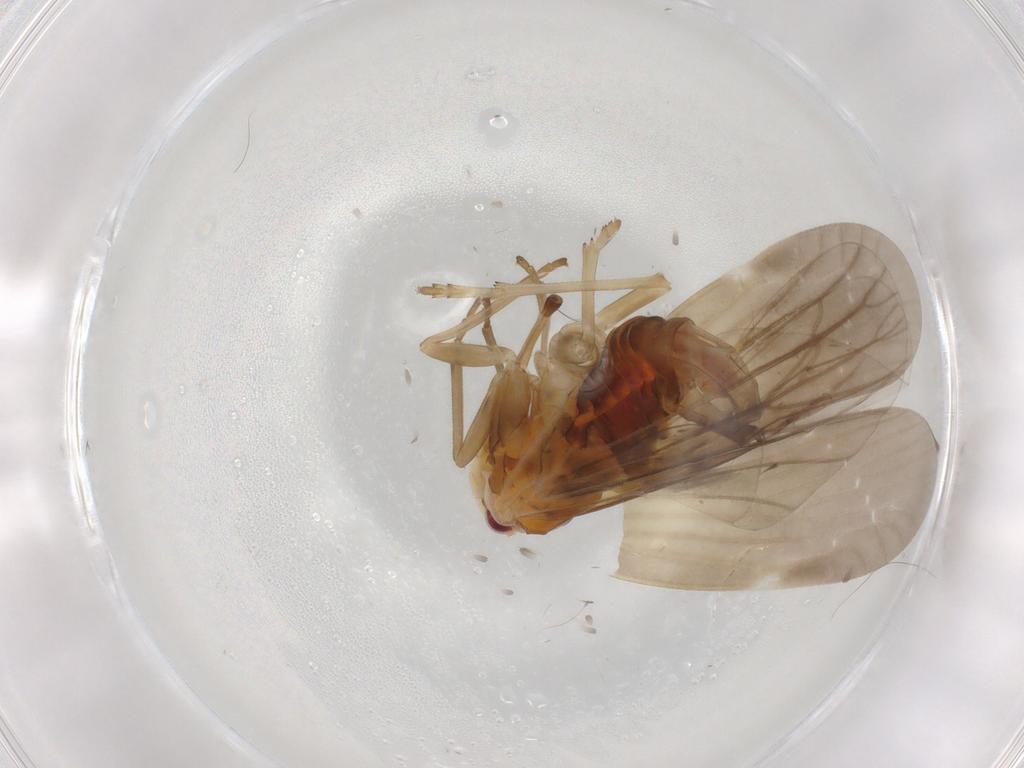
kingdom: Animalia
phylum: Arthropoda
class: Insecta
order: Hemiptera
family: Derbidae
